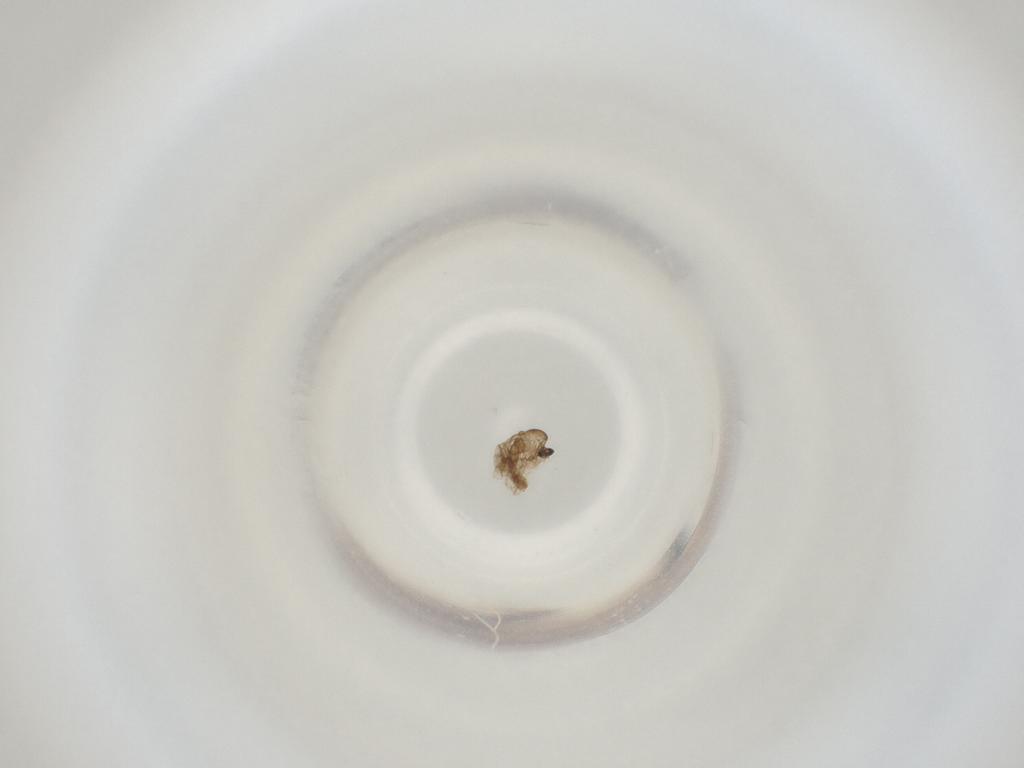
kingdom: Animalia
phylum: Arthropoda
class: Insecta
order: Diptera
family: Cecidomyiidae
